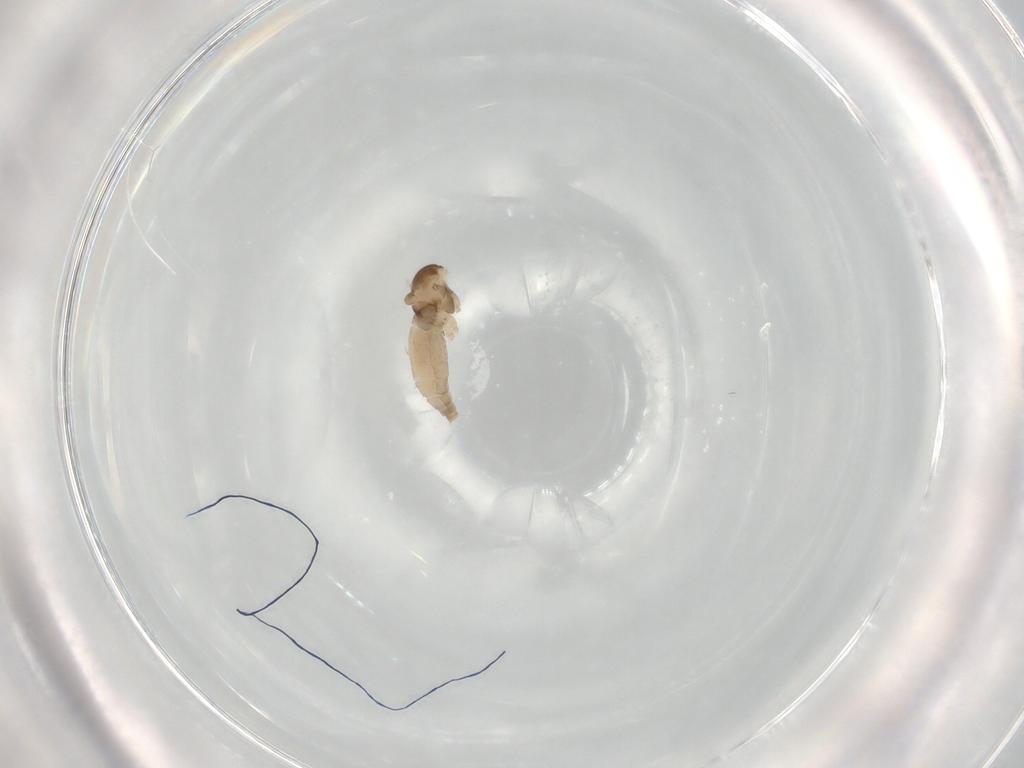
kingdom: Animalia
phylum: Arthropoda
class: Insecta
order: Diptera
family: Cecidomyiidae
